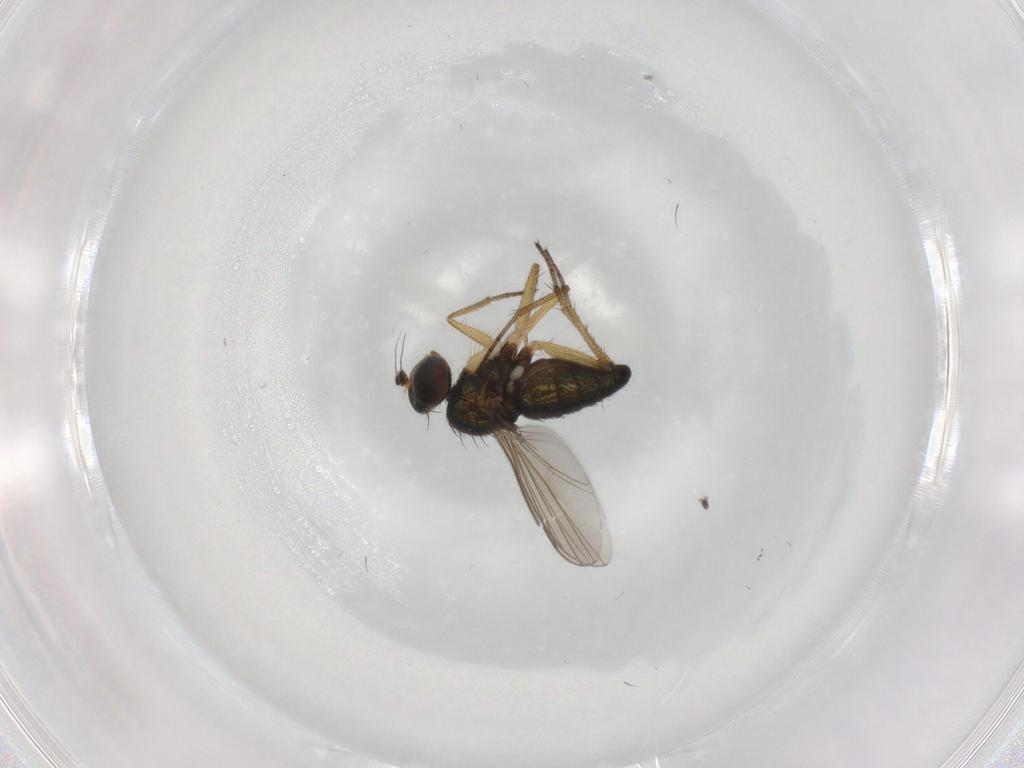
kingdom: Animalia
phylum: Arthropoda
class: Insecta
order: Diptera
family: Dolichopodidae
